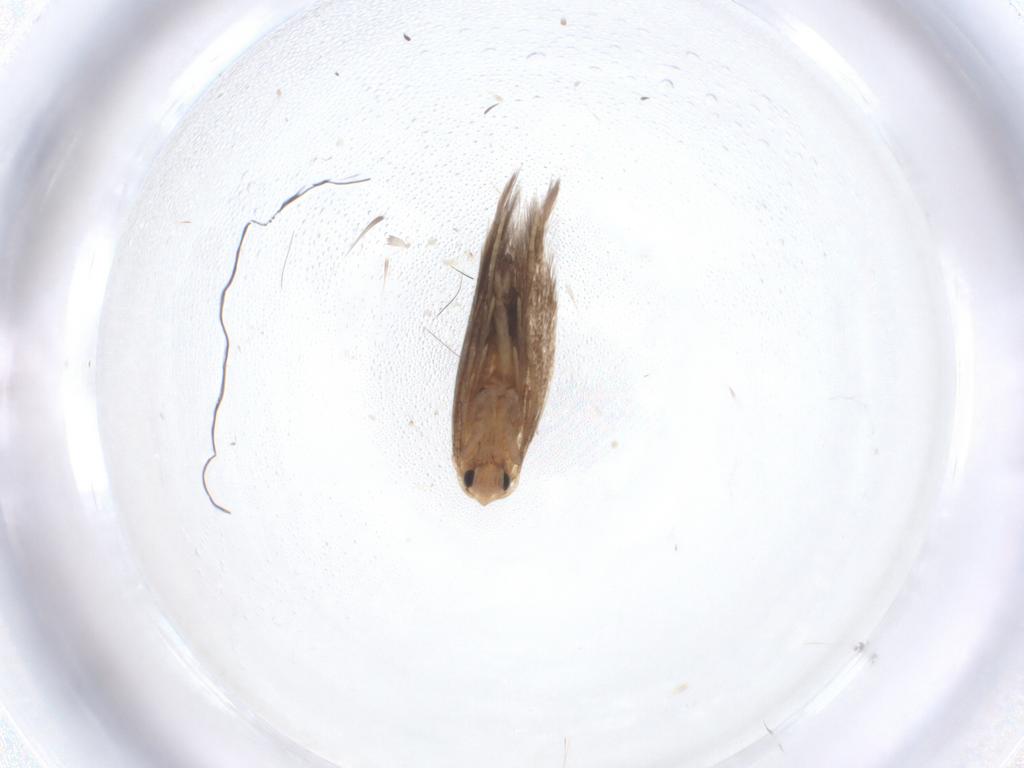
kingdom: Animalia
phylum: Arthropoda
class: Insecta
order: Lepidoptera
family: Gracillariidae
